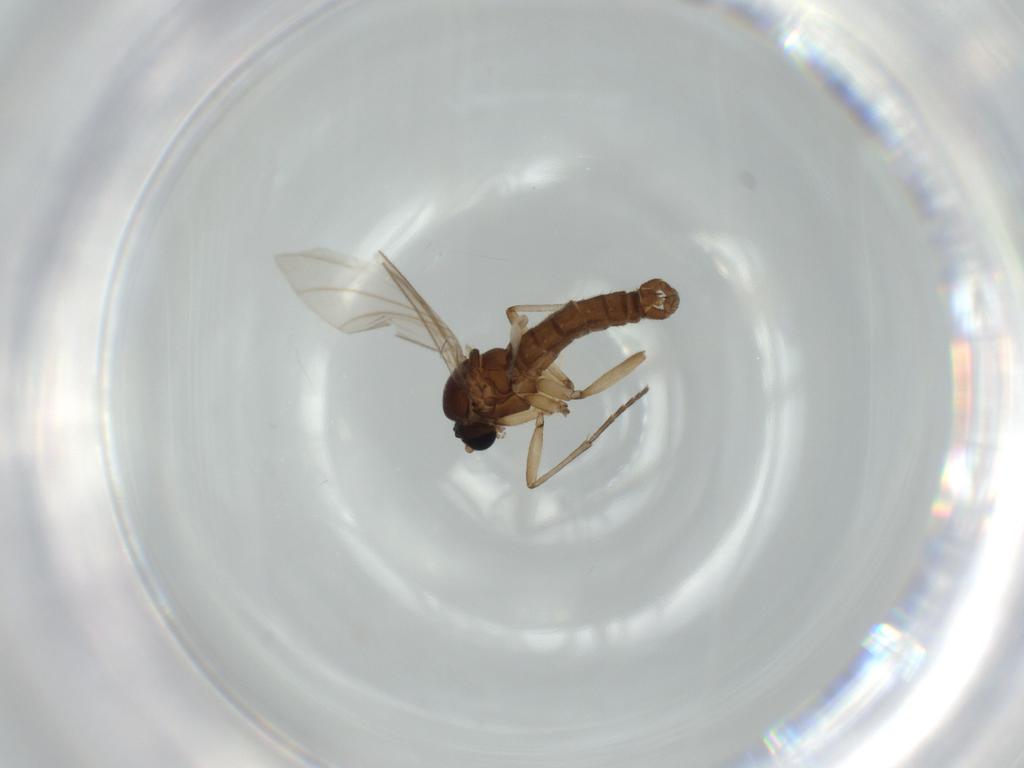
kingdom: Animalia
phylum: Arthropoda
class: Insecta
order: Diptera
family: Sciaridae
